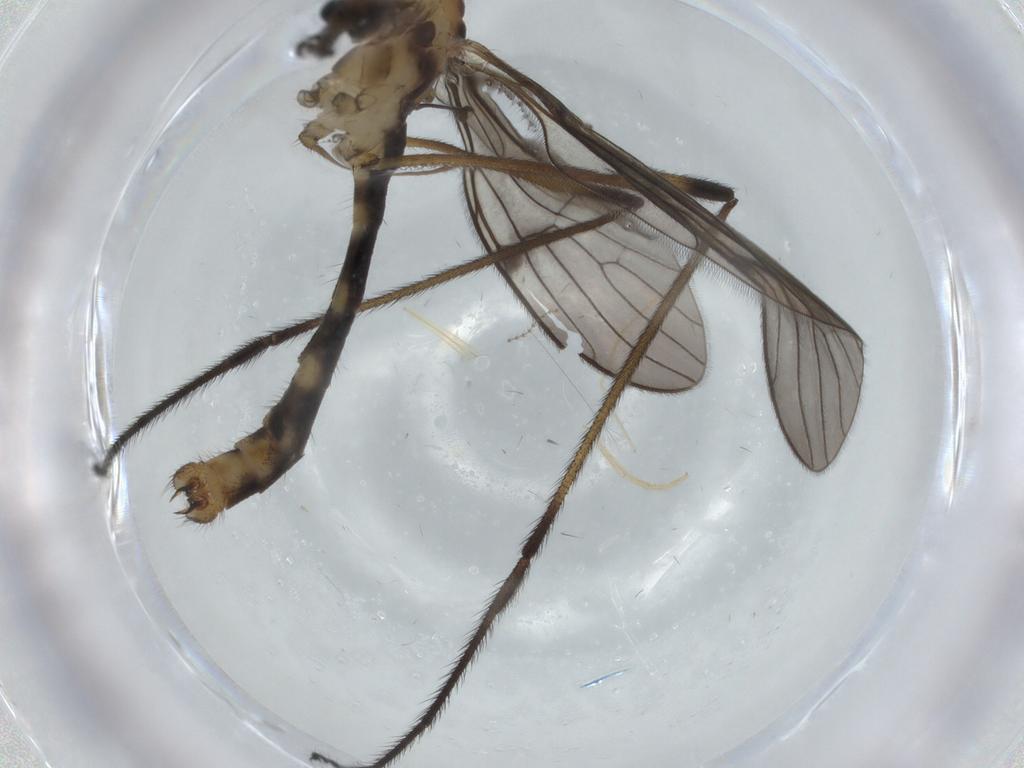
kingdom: Animalia
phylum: Arthropoda
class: Insecta
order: Diptera
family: Limoniidae
